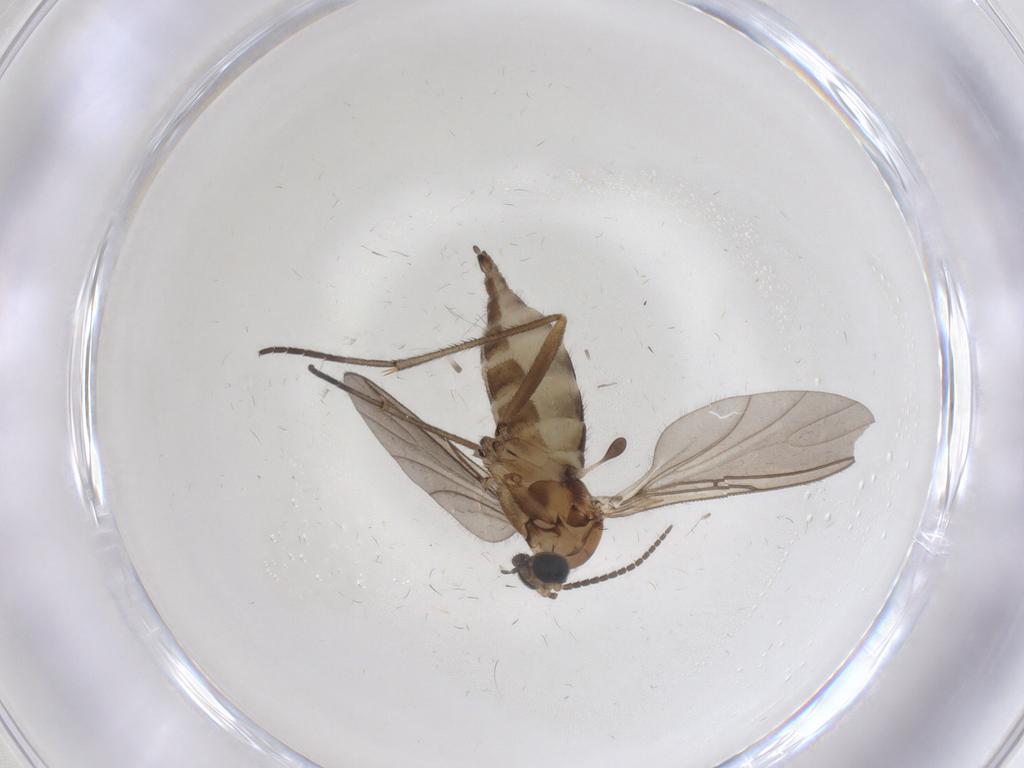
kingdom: Animalia
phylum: Arthropoda
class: Insecta
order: Diptera
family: Sciaridae
